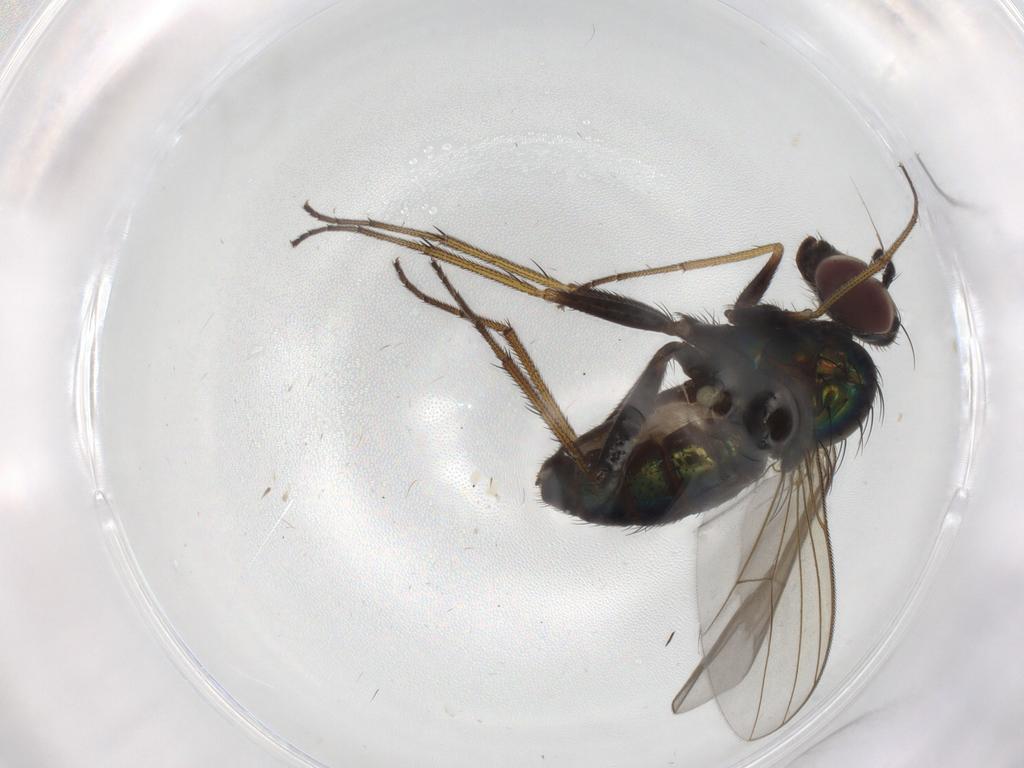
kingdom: Animalia
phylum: Arthropoda
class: Insecta
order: Diptera
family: Dolichopodidae
